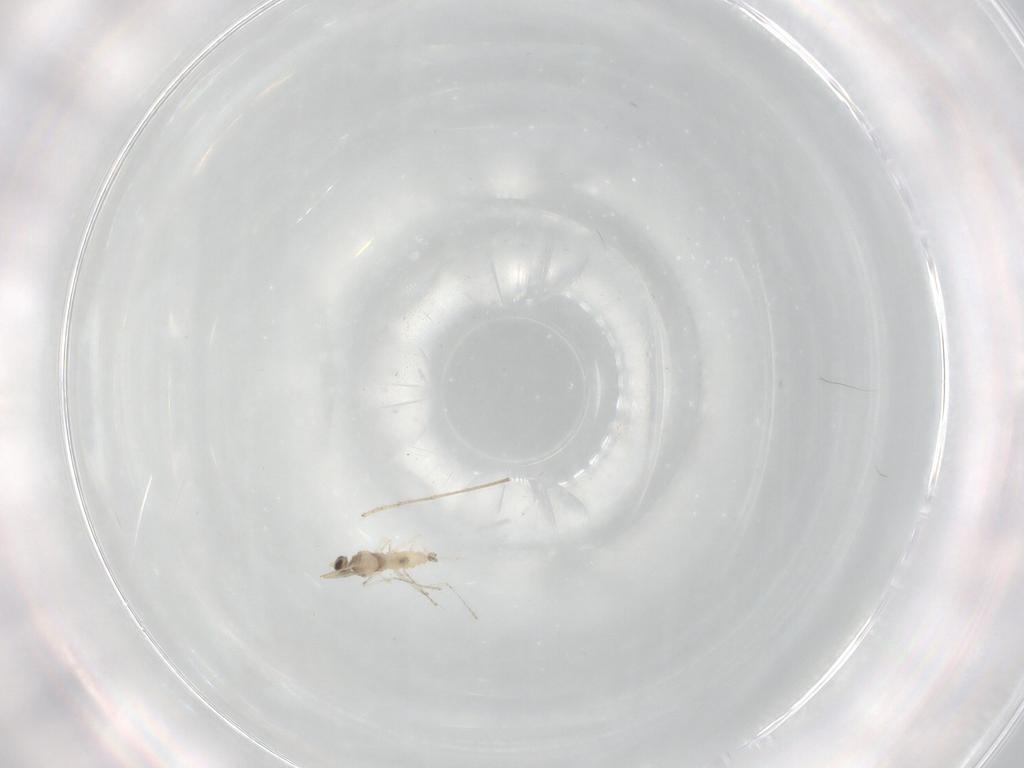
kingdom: Animalia
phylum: Arthropoda
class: Insecta
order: Diptera
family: Cecidomyiidae
